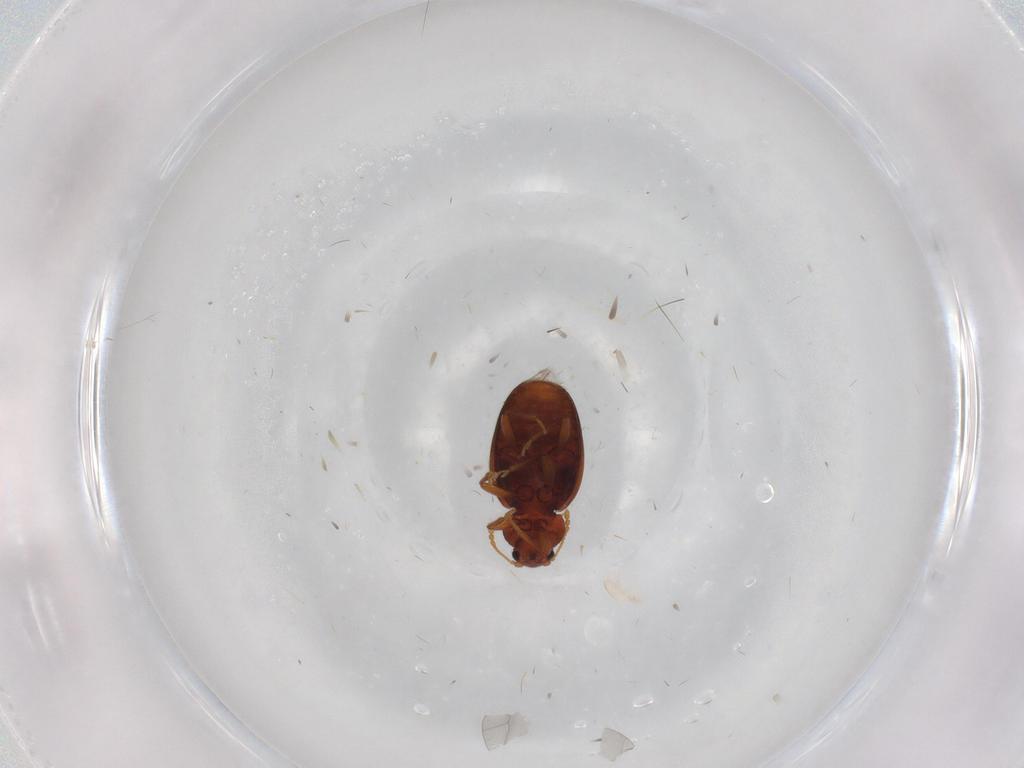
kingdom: Animalia
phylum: Arthropoda
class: Insecta
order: Coleoptera
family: Latridiidae
